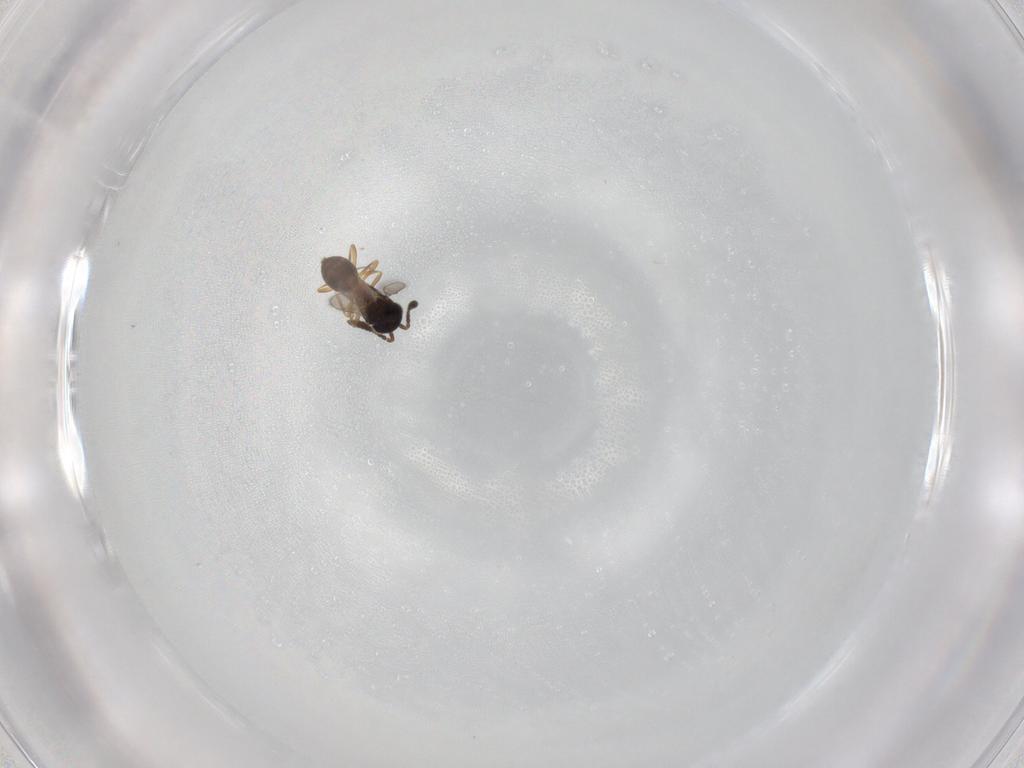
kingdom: Animalia
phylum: Arthropoda
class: Insecta
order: Hymenoptera
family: Scelionidae
